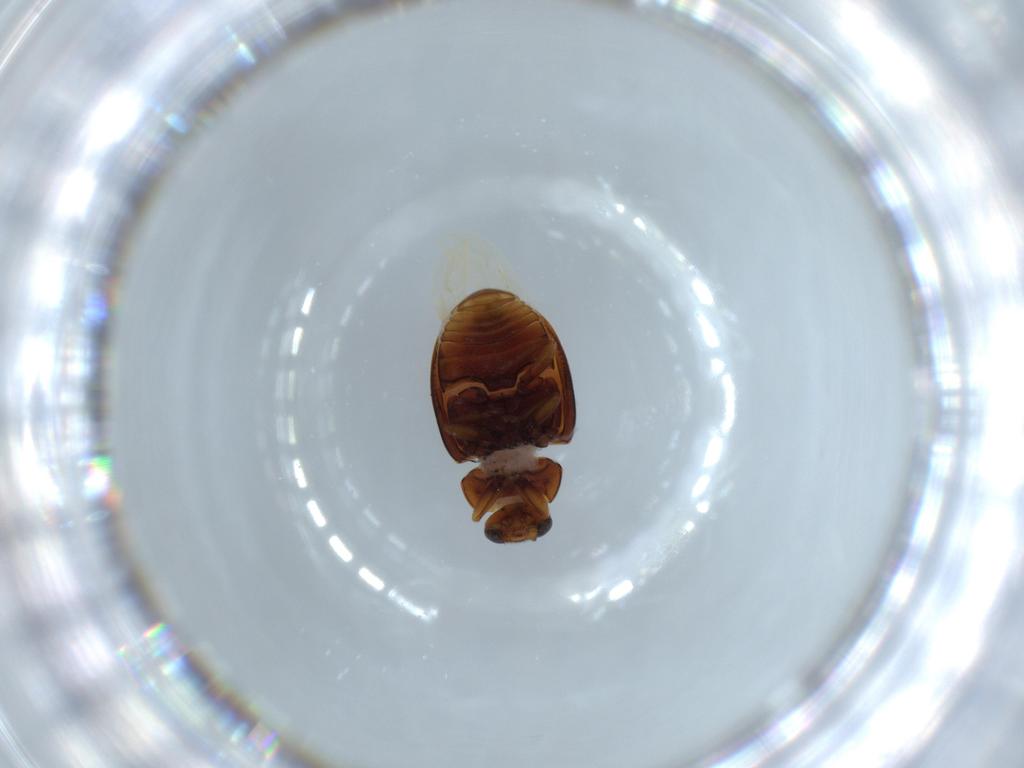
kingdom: Animalia
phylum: Arthropoda
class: Insecta
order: Coleoptera
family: Coccinellidae
